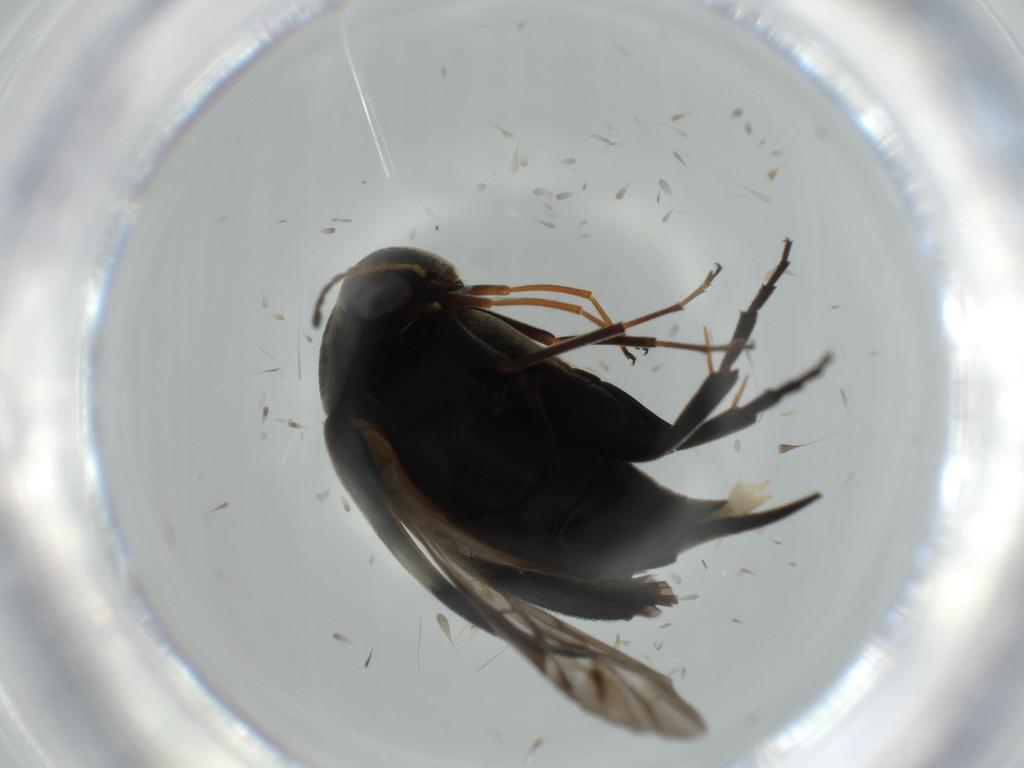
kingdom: Animalia
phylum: Arthropoda
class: Insecta
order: Coleoptera
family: Mordellidae
